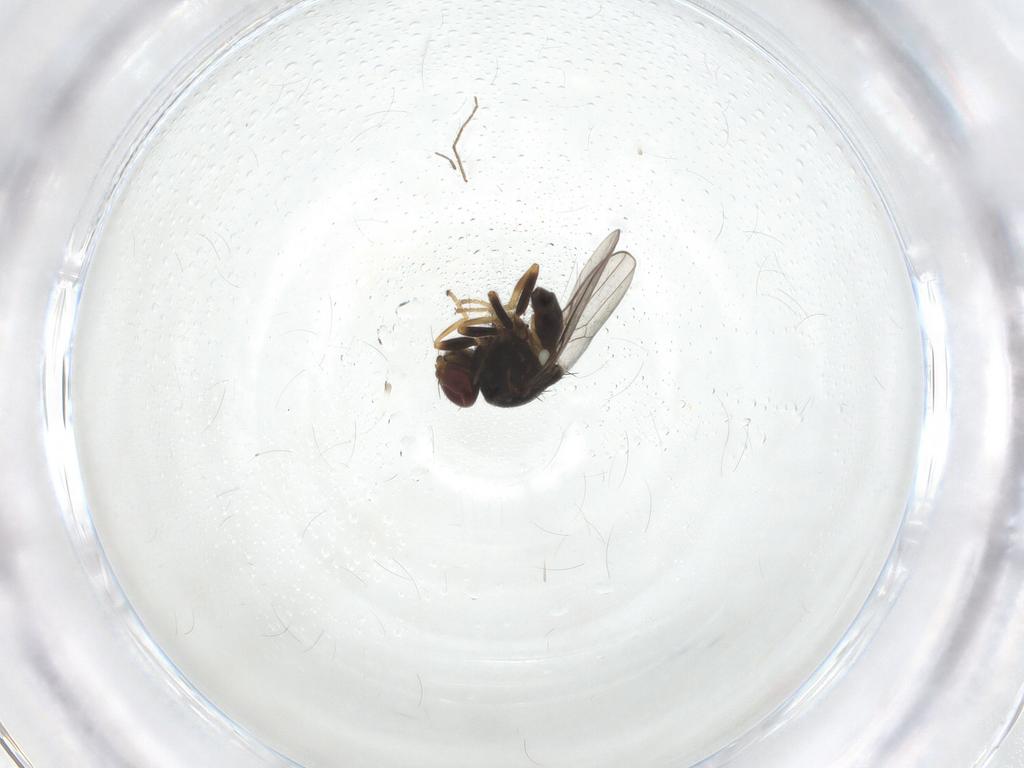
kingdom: Animalia
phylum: Arthropoda
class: Insecta
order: Diptera
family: Chloropidae
